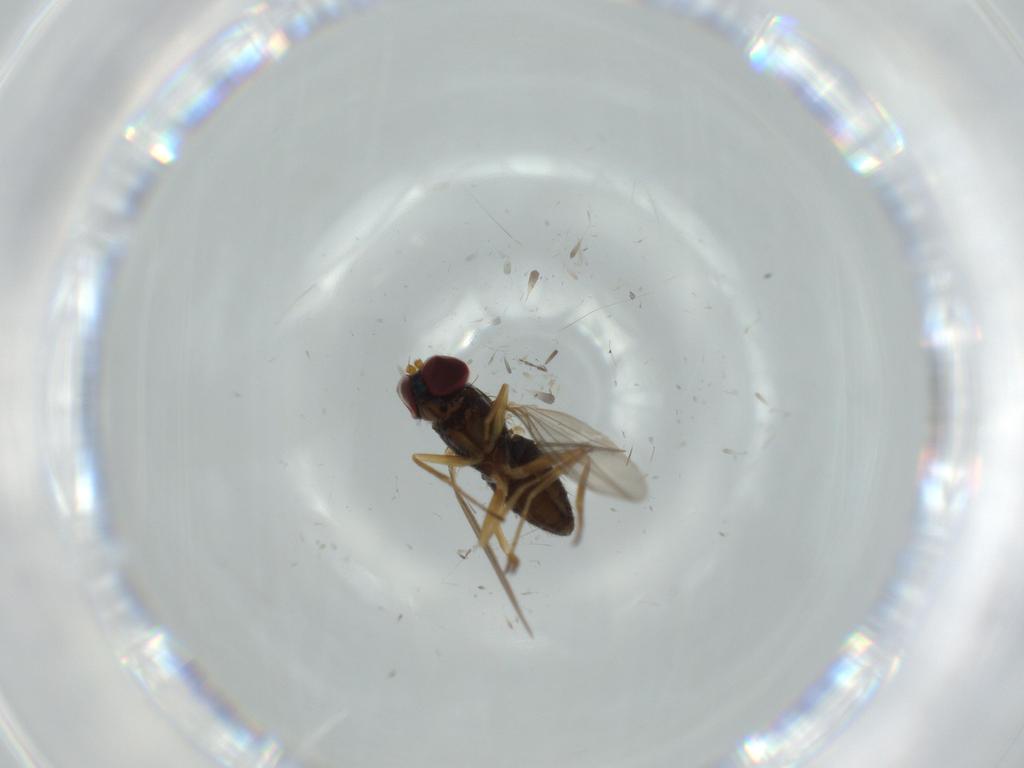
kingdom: Animalia
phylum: Arthropoda
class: Insecta
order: Diptera
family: Cecidomyiidae
